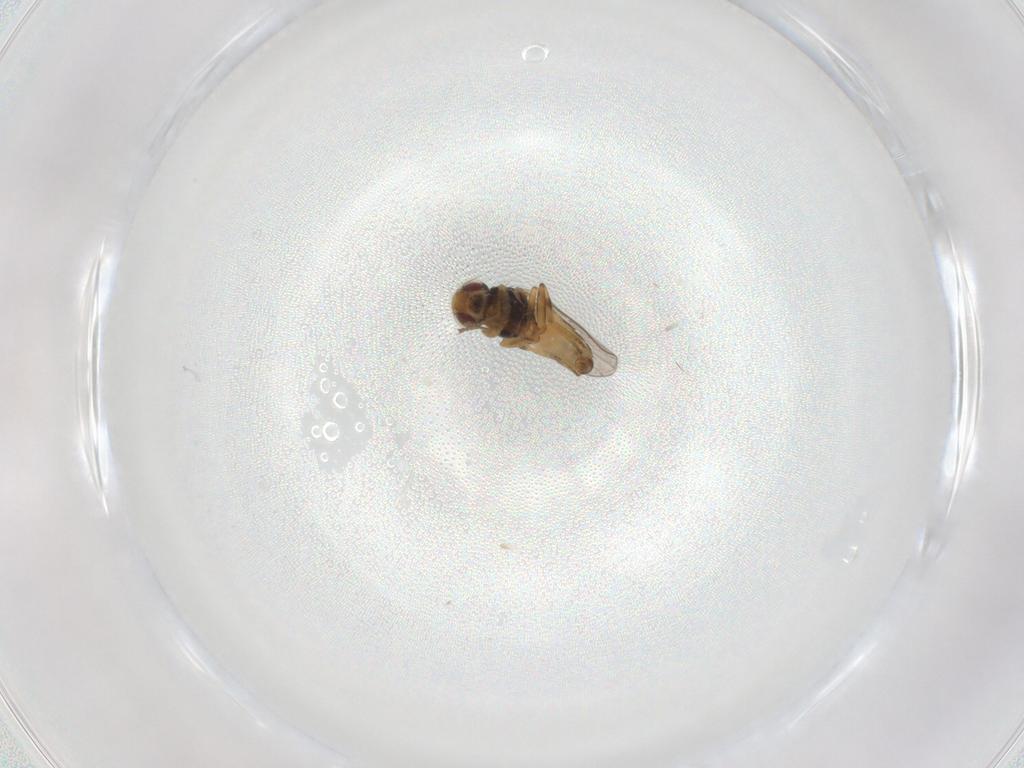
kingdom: Animalia
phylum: Arthropoda
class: Insecta
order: Diptera
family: Chloropidae
